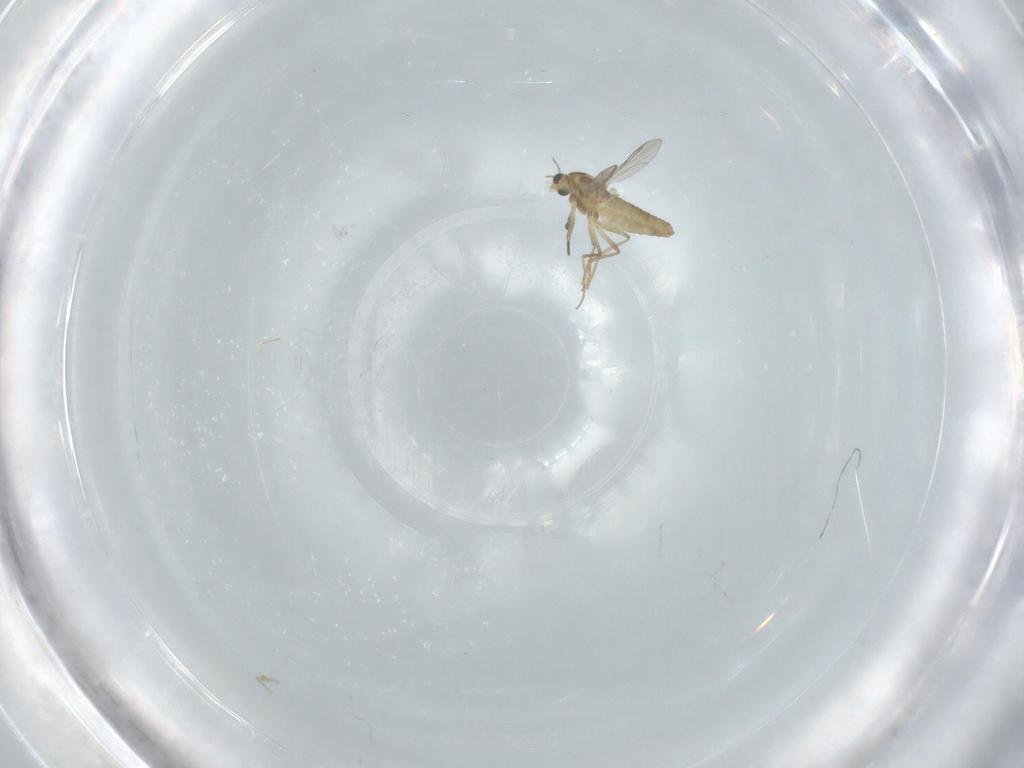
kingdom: Animalia
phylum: Arthropoda
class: Insecta
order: Diptera
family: Chironomidae
